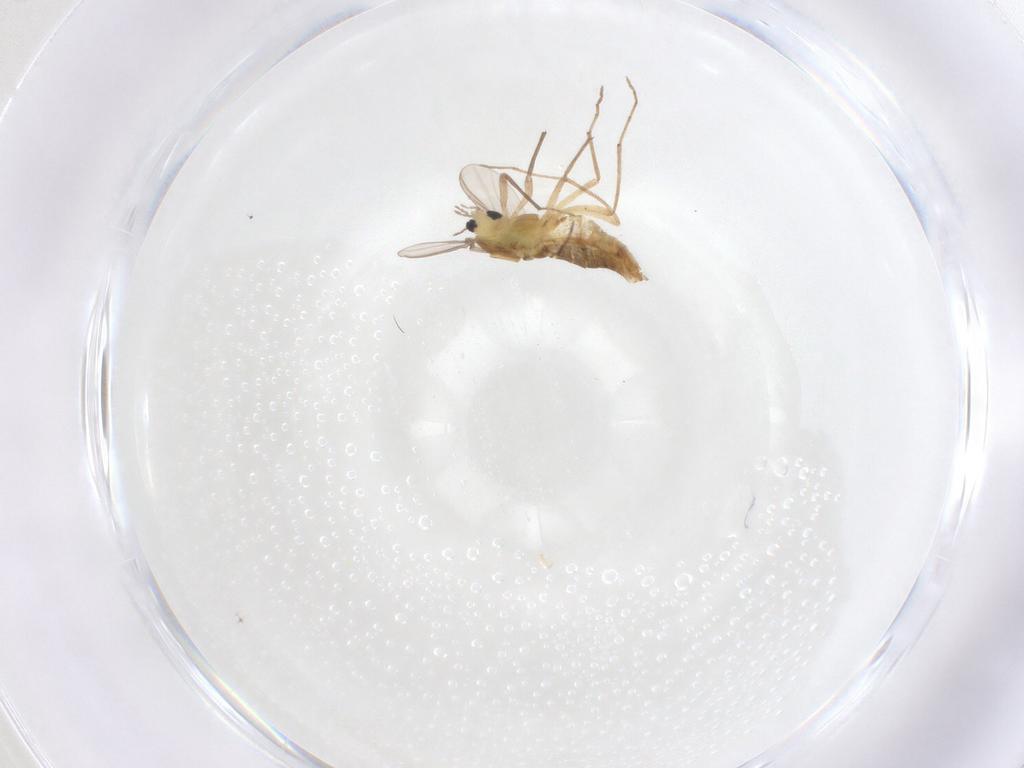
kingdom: Animalia
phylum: Arthropoda
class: Insecta
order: Diptera
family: Chironomidae
